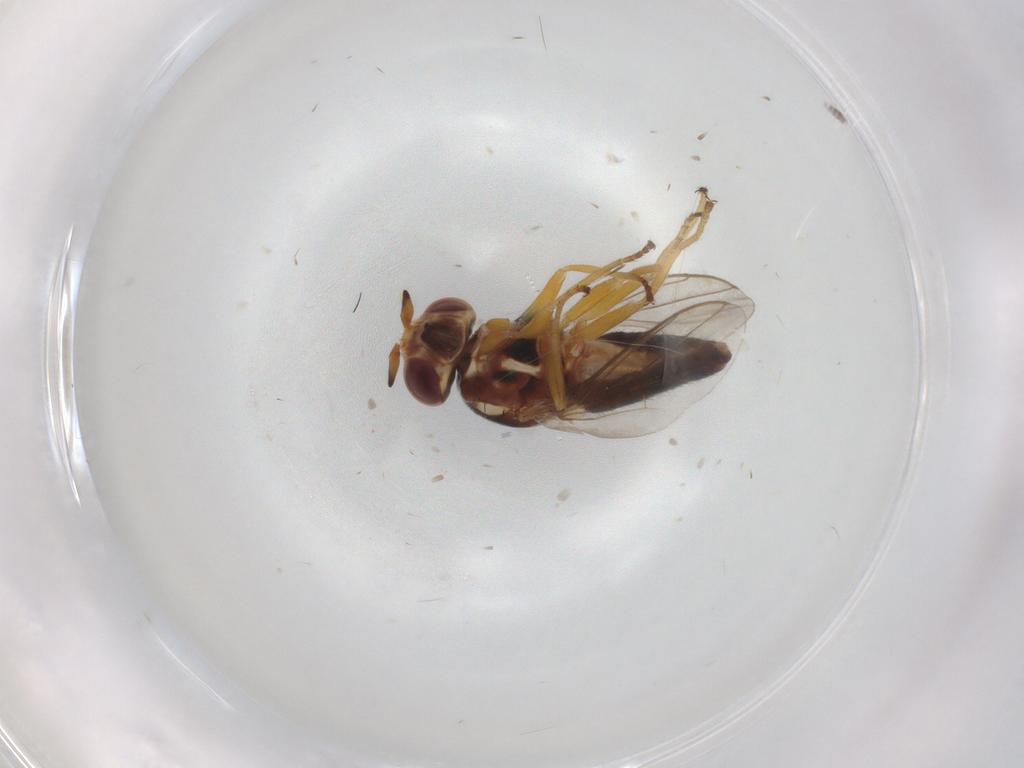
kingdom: Animalia
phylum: Arthropoda
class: Insecta
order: Diptera
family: Chloropidae
